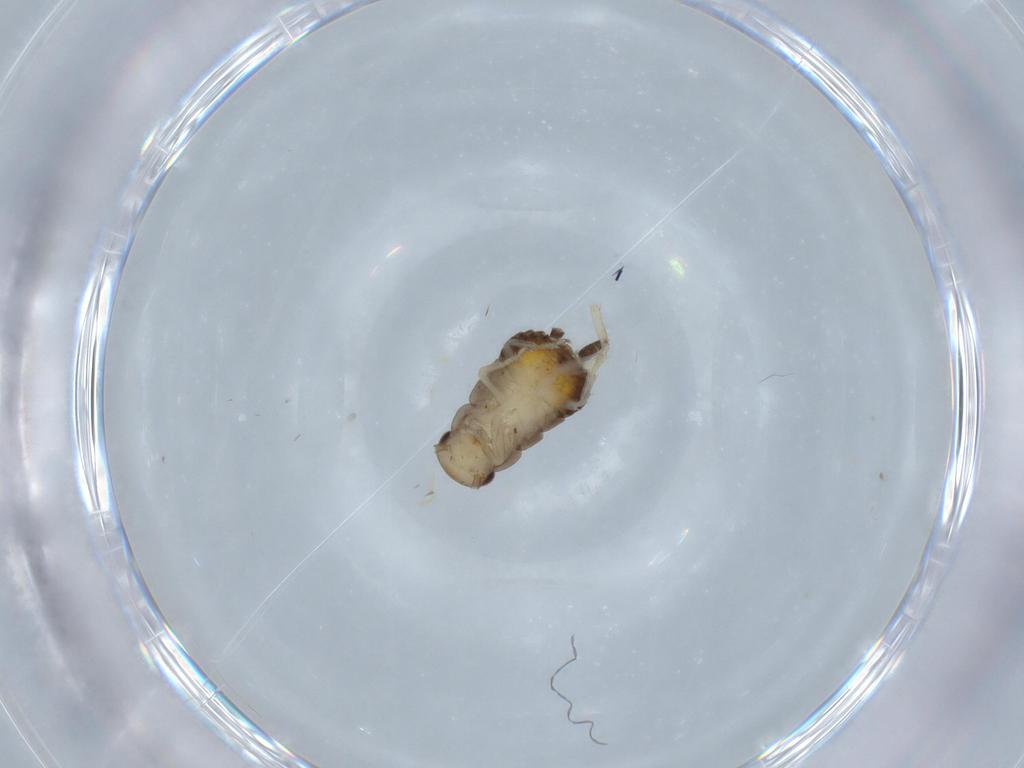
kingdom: Animalia
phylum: Arthropoda
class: Insecta
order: Blattodea
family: Ectobiidae
